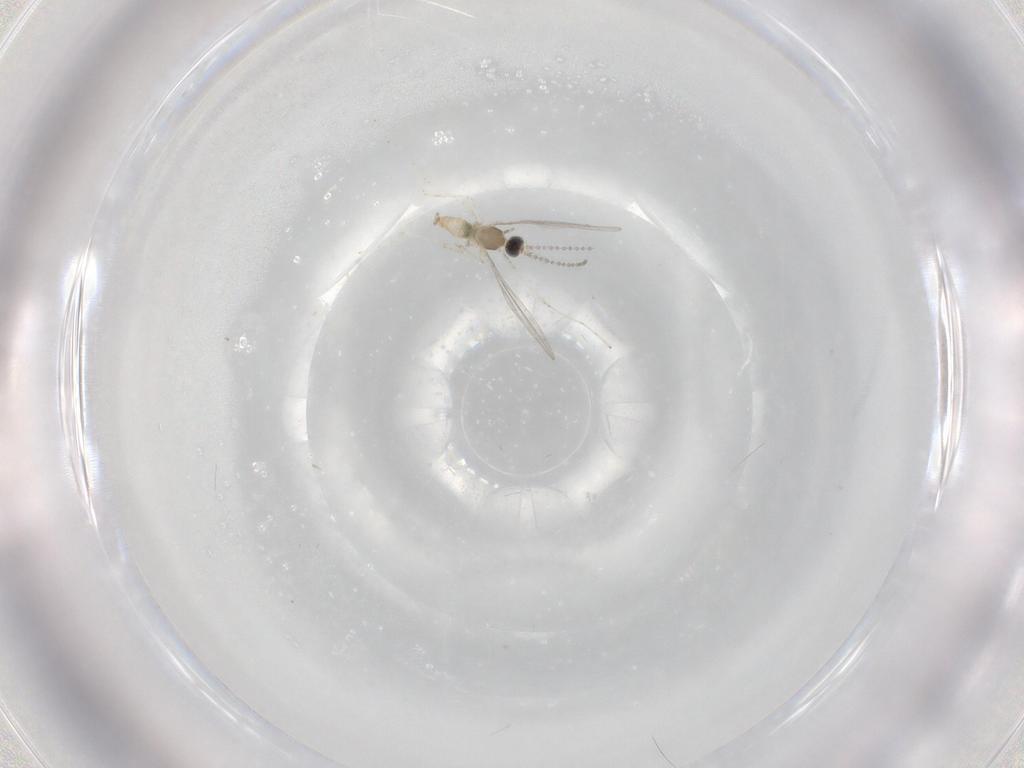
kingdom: Animalia
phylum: Arthropoda
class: Insecta
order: Diptera
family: Cecidomyiidae
